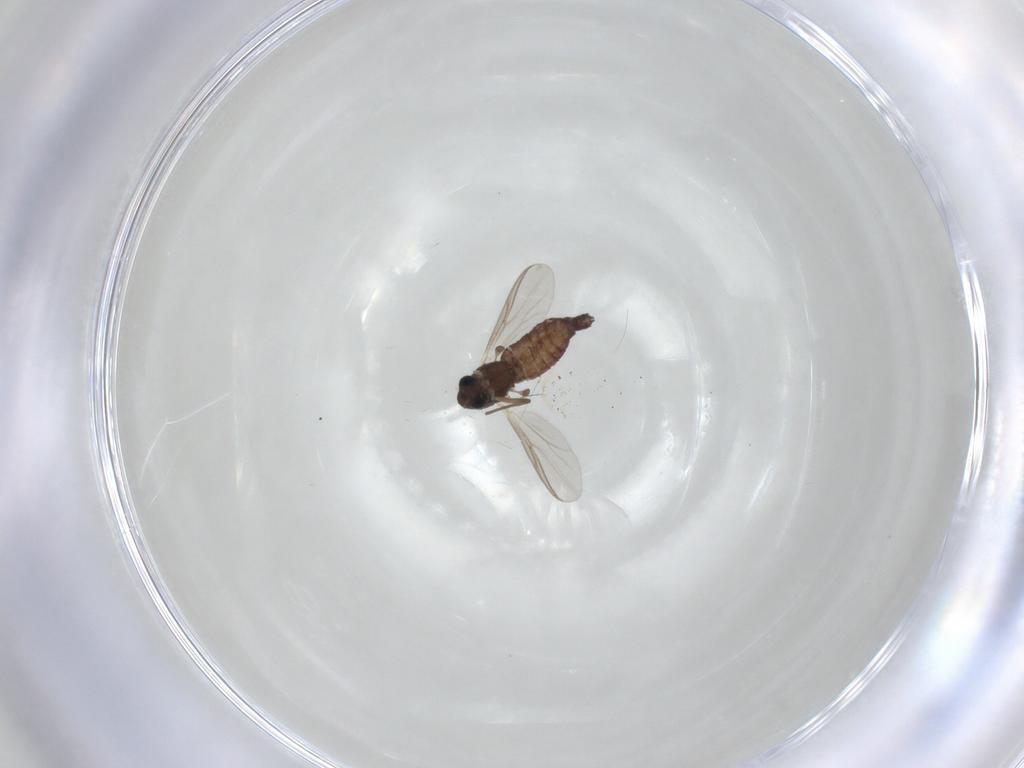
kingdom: Animalia
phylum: Arthropoda
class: Insecta
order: Diptera
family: Chironomidae
